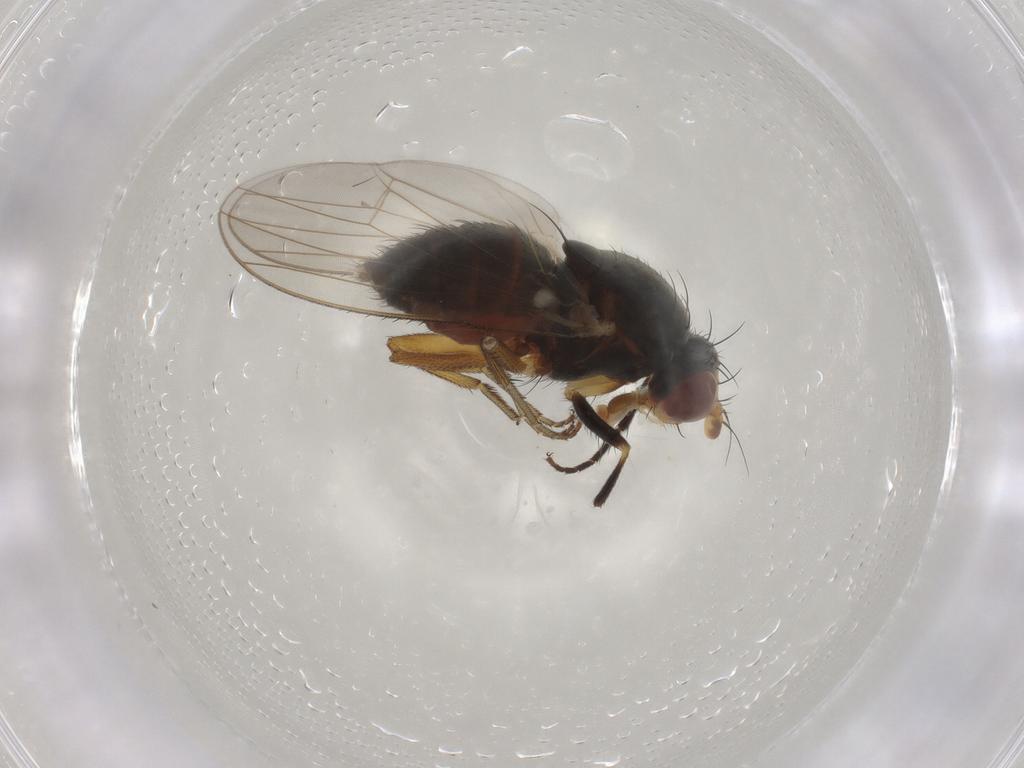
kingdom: Animalia
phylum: Arthropoda
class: Insecta
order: Diptera
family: Heleomyzidae
